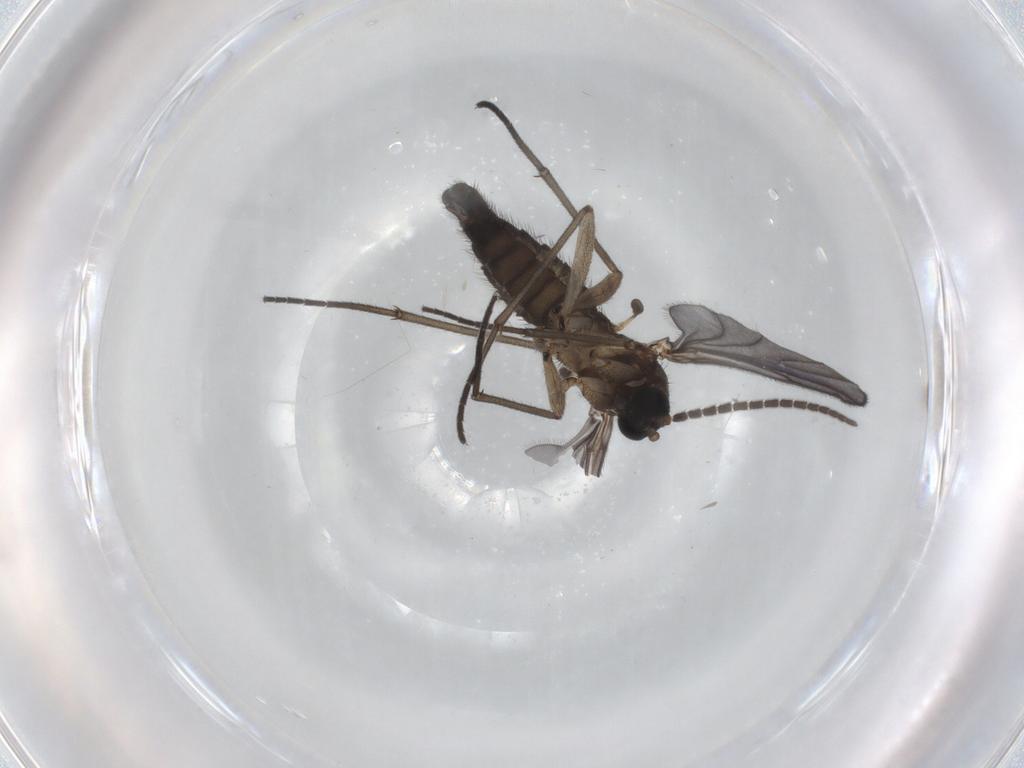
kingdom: Animalia
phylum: Arthropoda
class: Insecta
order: Diptera
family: Sciaridae
